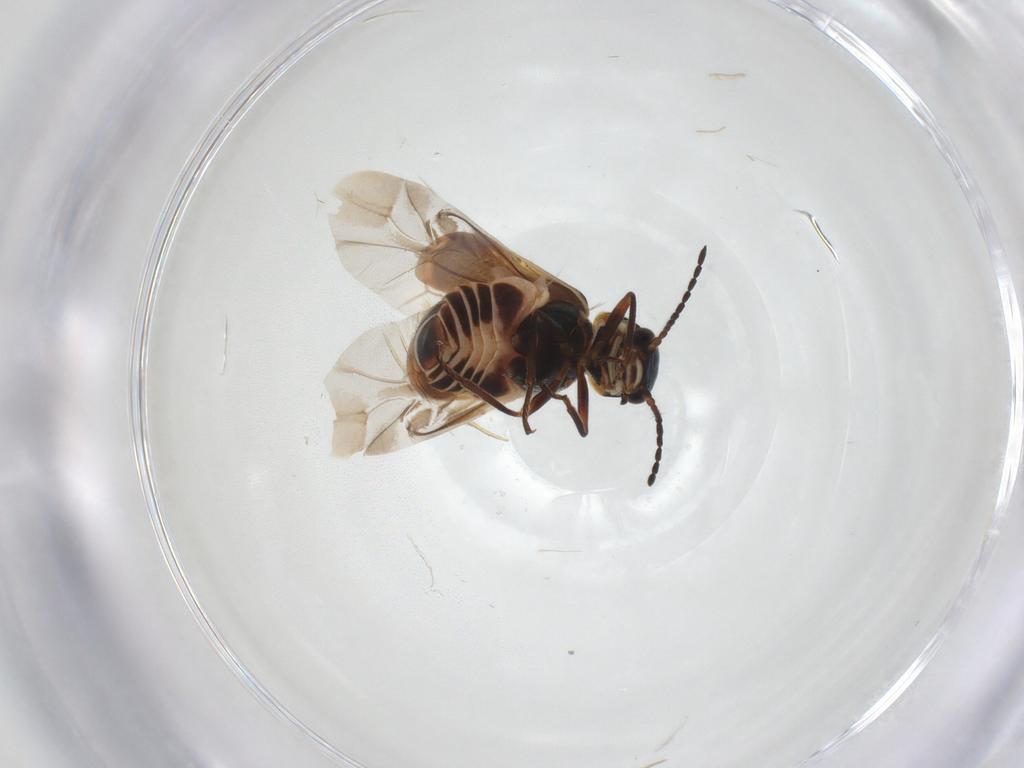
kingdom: Animalia
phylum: Arthropoda
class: Insecta
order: Coleoptera
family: Melyridae
